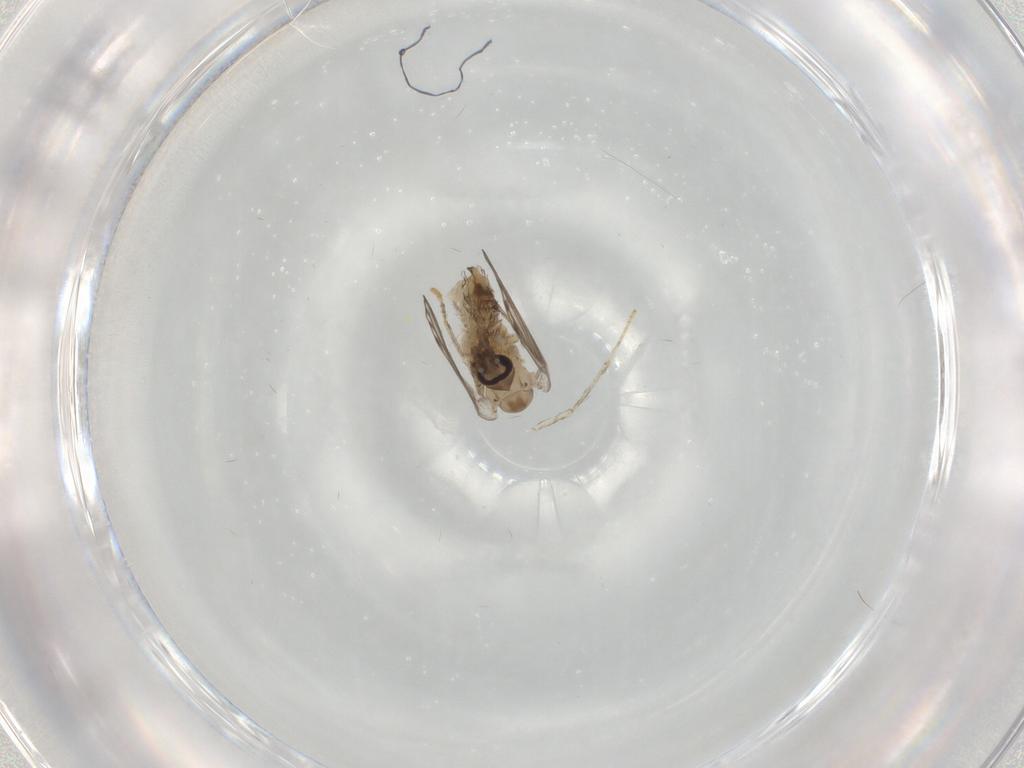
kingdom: Animalia
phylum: Arthropoda
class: Insecta
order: Diptera
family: Psychodidae
